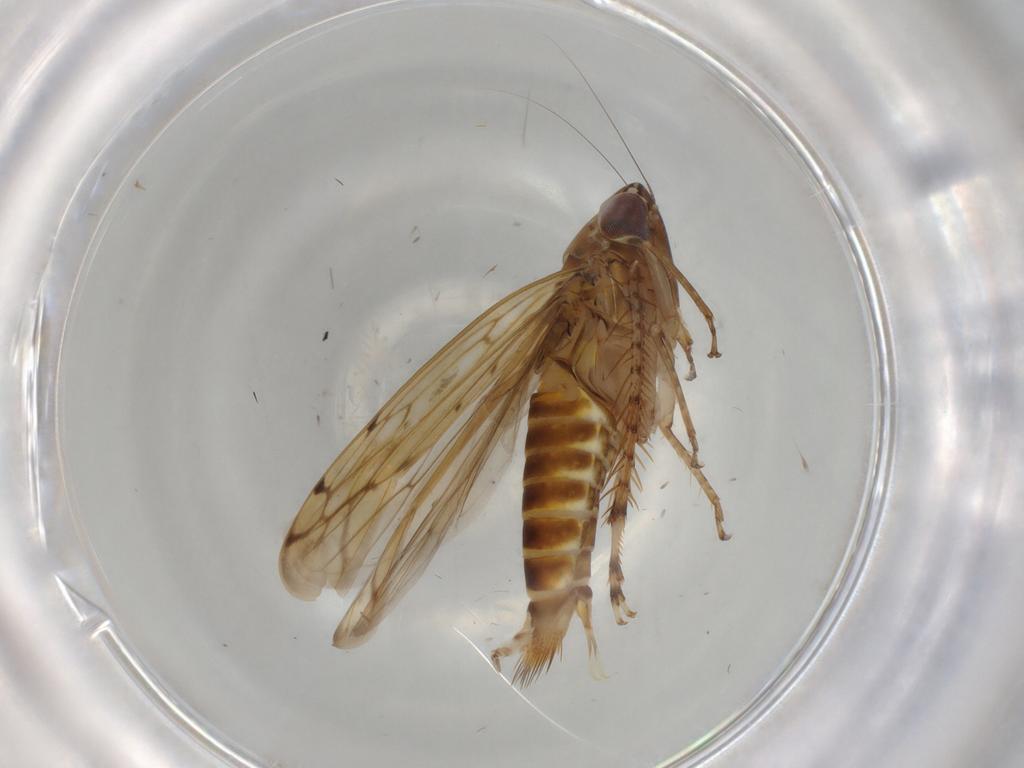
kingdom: Animalia
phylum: Arthropoda
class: Insecta
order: Hemiptera
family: Cicadellidae
